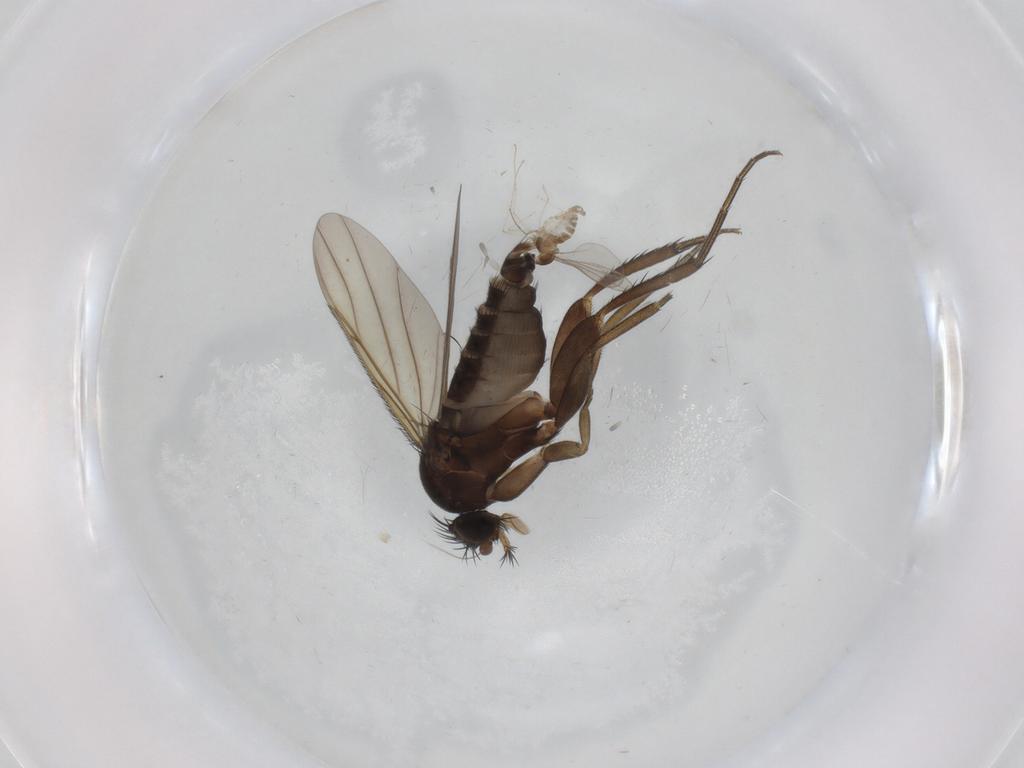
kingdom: Animalia
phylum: Arthropoda
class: Insecta
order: Diptera
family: Phoridae
